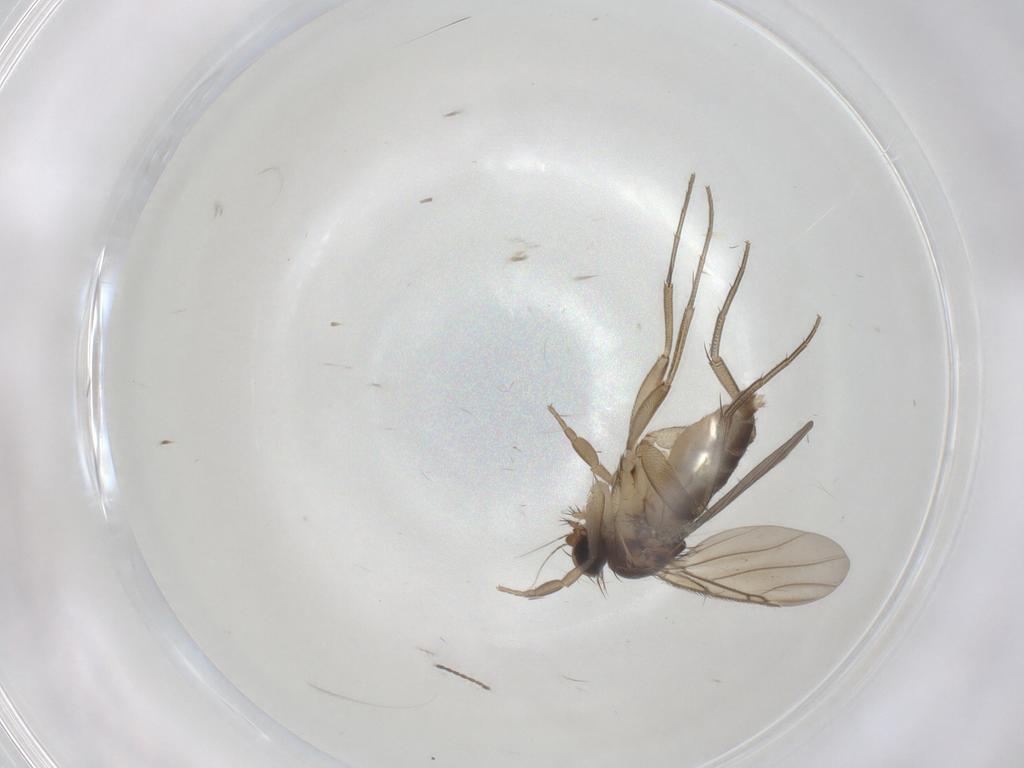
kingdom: Animalia
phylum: Arthropoda
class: Insecta
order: Diptera
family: Phoridae
